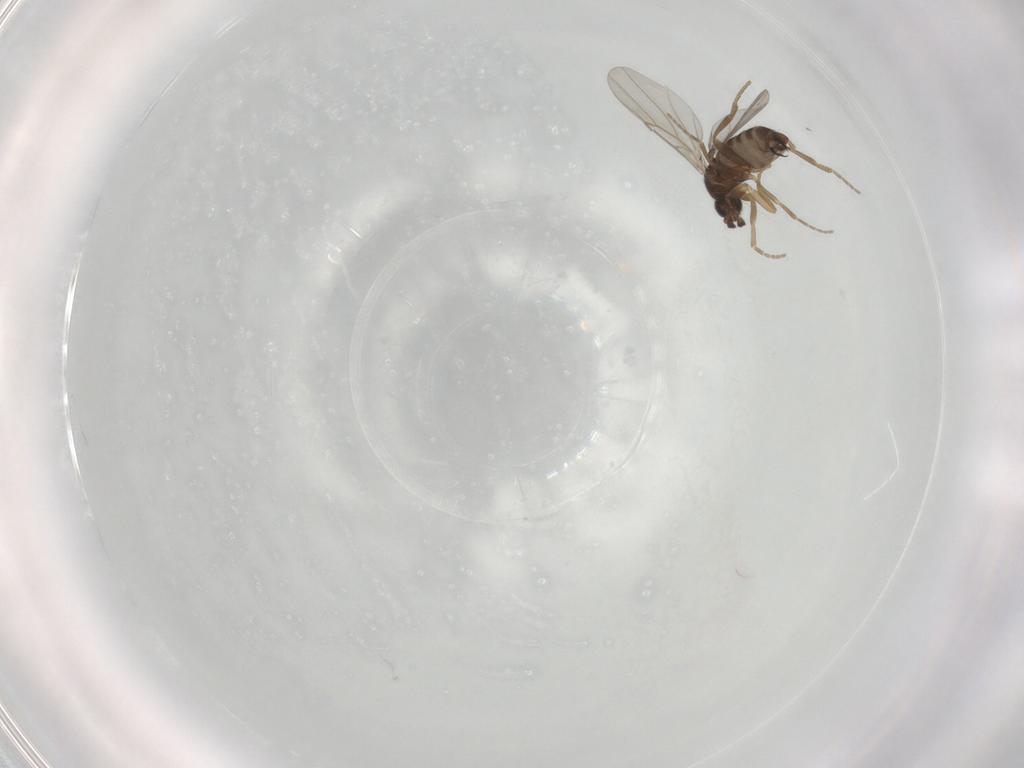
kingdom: Animalia
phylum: Arthropoda
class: Insecta
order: Diptera
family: Phoridae
